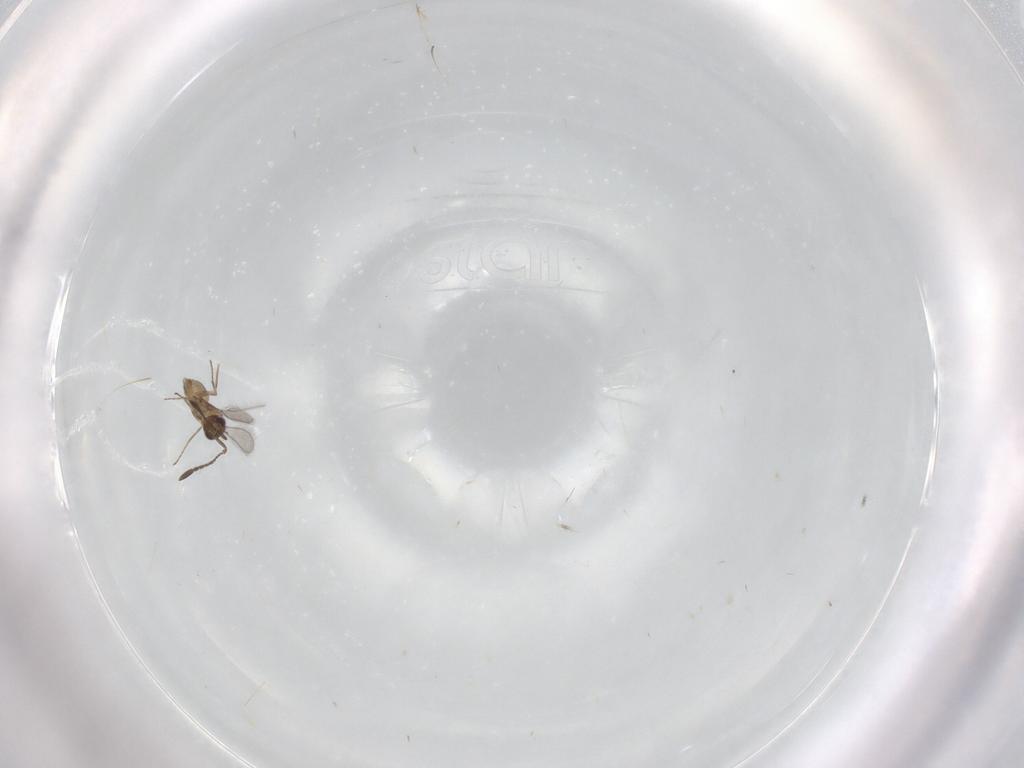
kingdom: Animalia
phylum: Arthropoda
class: Insecta
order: Hymenoptera
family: Mymaridae
